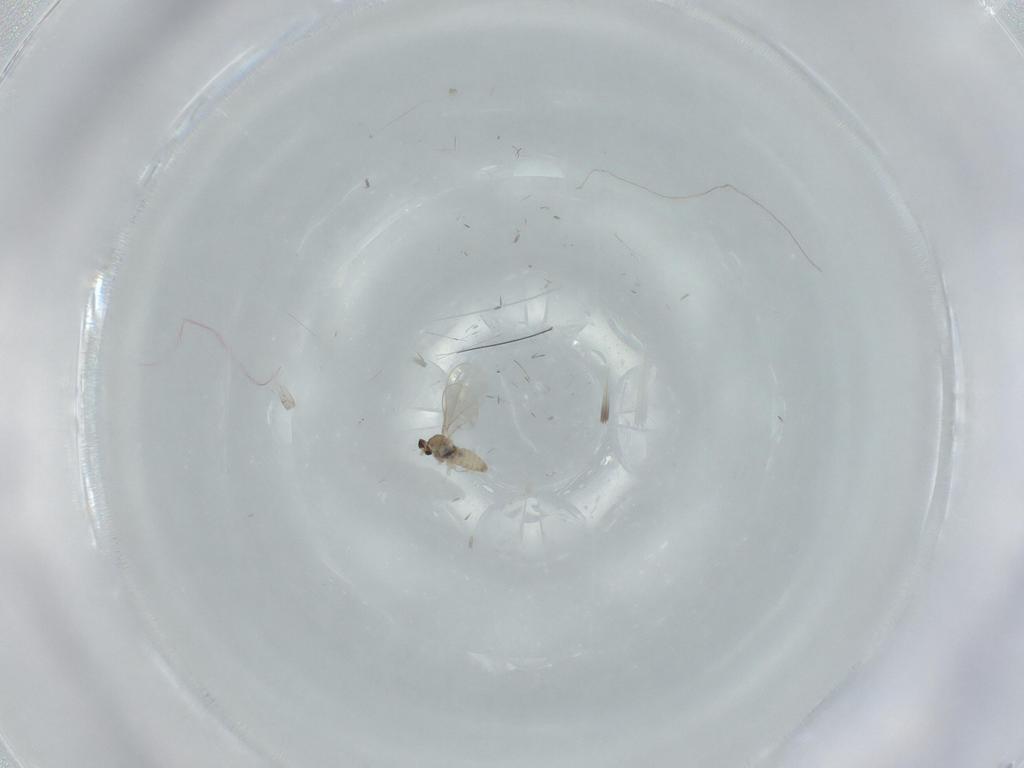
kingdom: Animalia
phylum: Arthropoda
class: Insecta
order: Diptera
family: Cecidomyiidae
